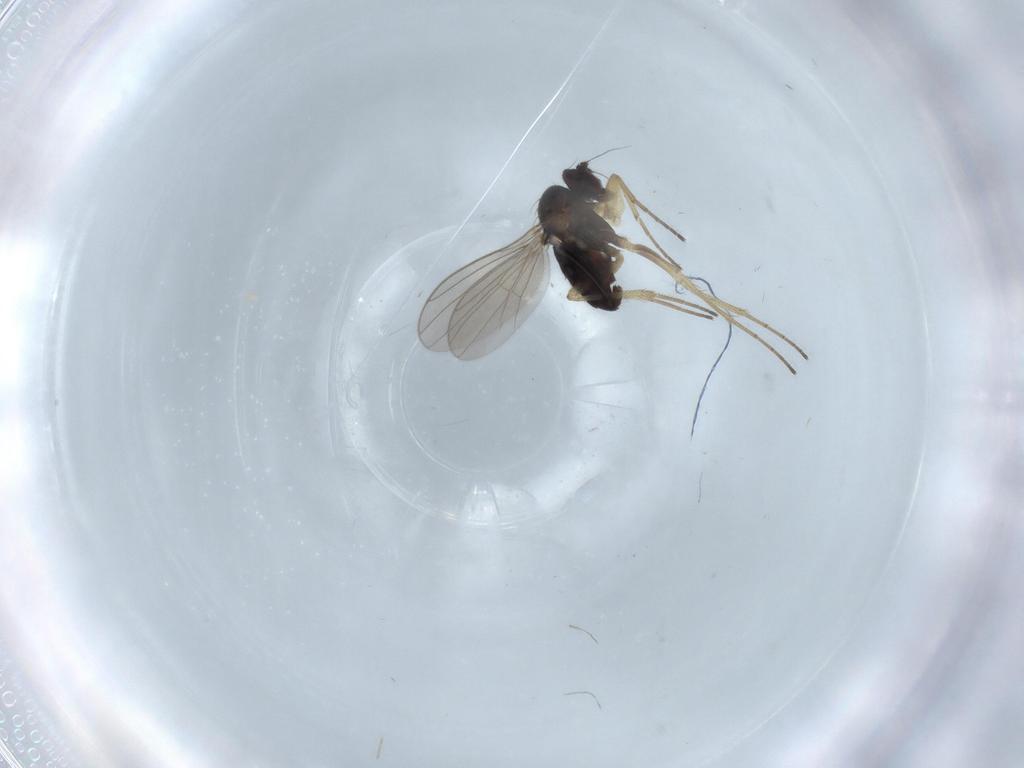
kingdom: Animalia
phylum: Arthropoda
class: Insecta
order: Diptera
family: Dolichopodidae
